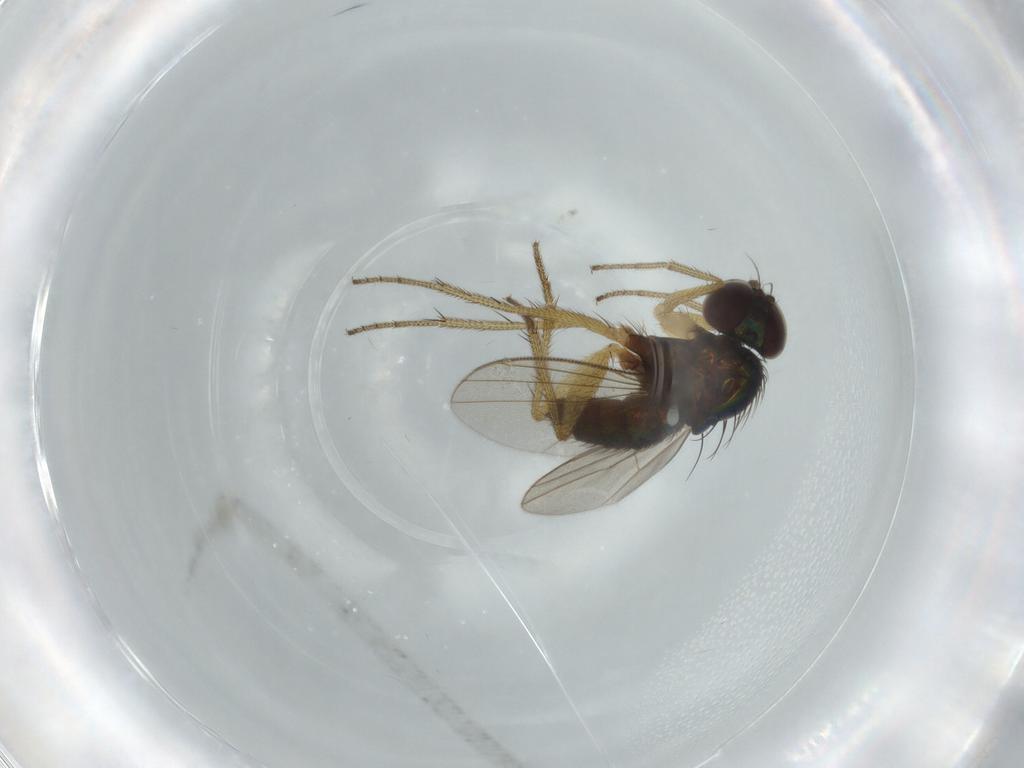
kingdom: Animalia
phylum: Arthropoda
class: Insecta
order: Diptera
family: Dolichopodidae
